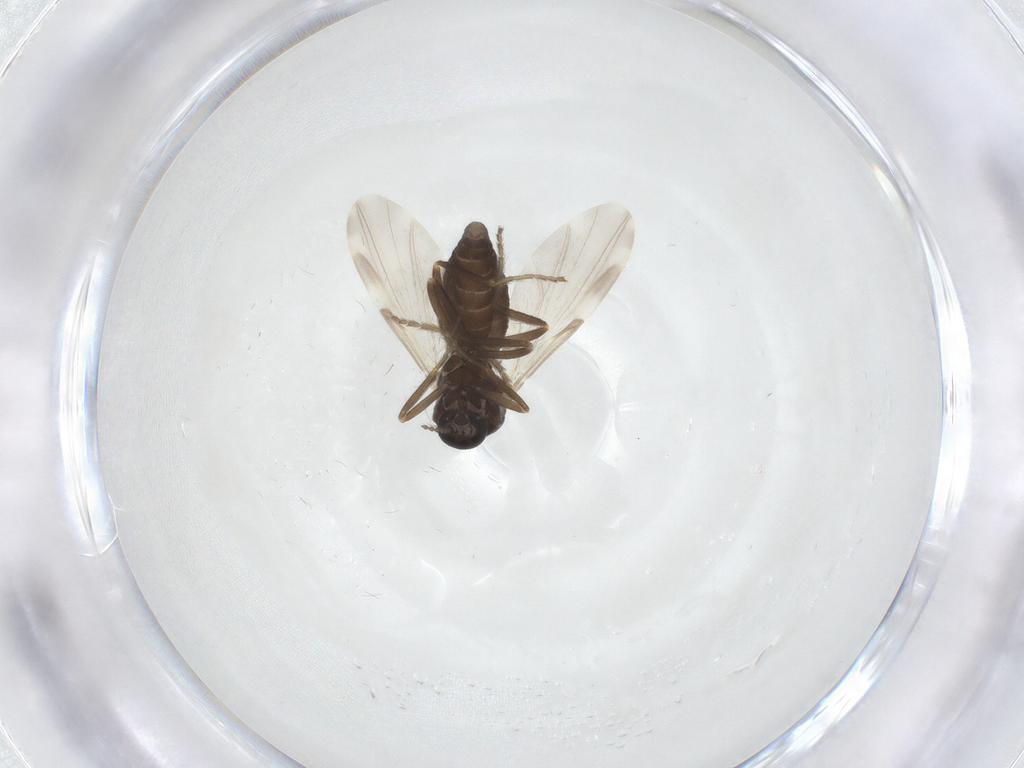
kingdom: Animalia
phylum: Arthropoda
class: Insecta
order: Diptera
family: Ceratopogonidae
